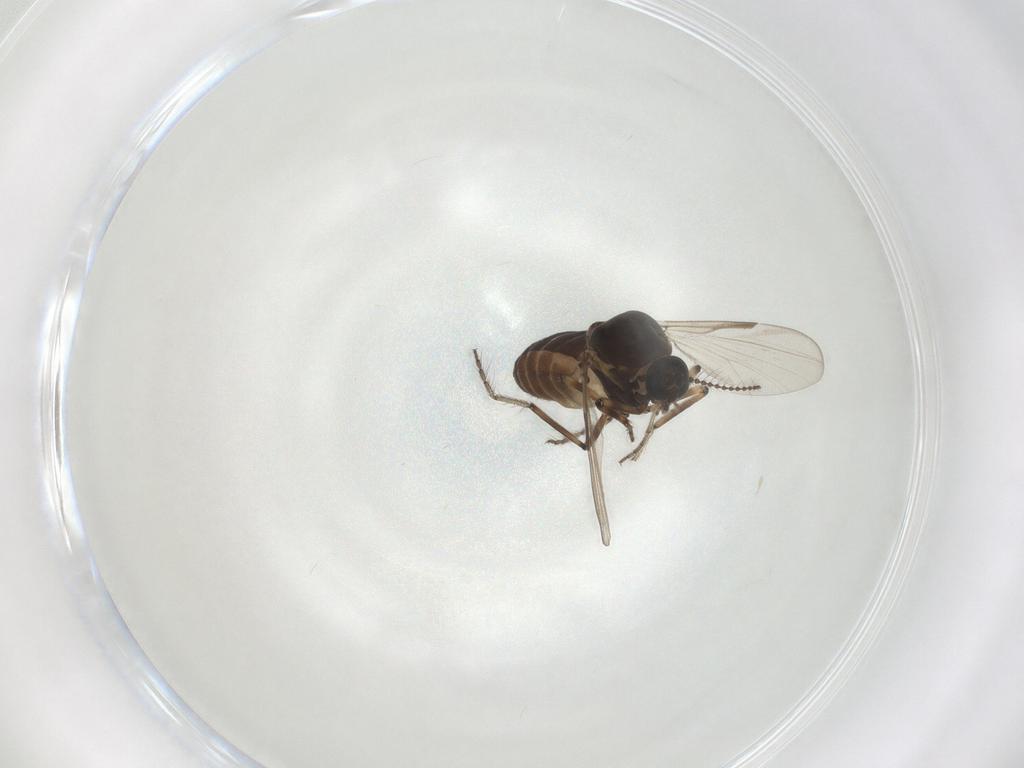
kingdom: Animalia
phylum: Arthropoda
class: Insecta
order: Diptera
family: Ceratopogonidae
